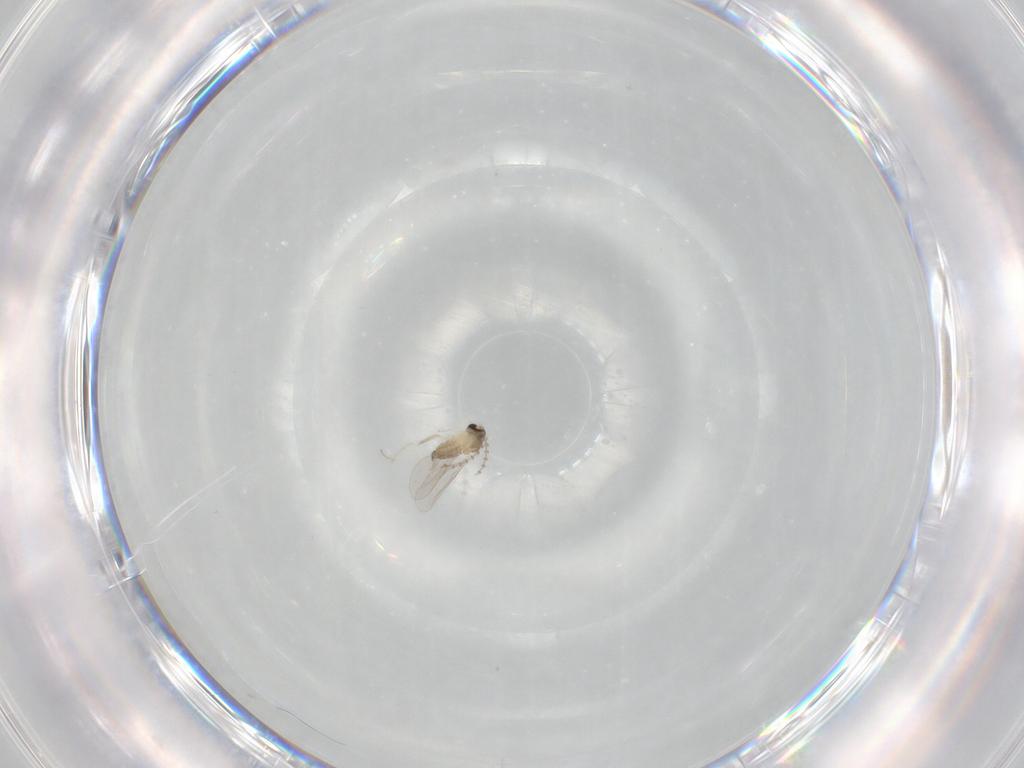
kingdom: Animalia
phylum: Arthropoda
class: Insecta
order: Diptera
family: Cecidomyiidae
